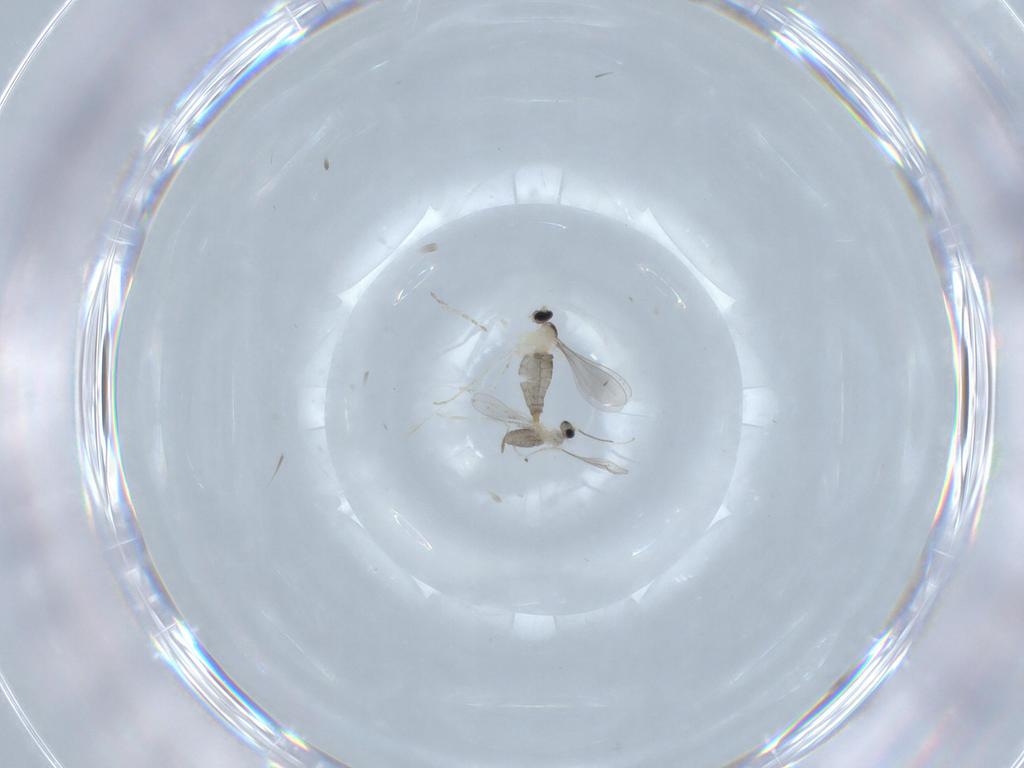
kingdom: Animalia
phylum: Arthropoda
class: Insecta
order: Diptera
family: Cecidomyiidae
